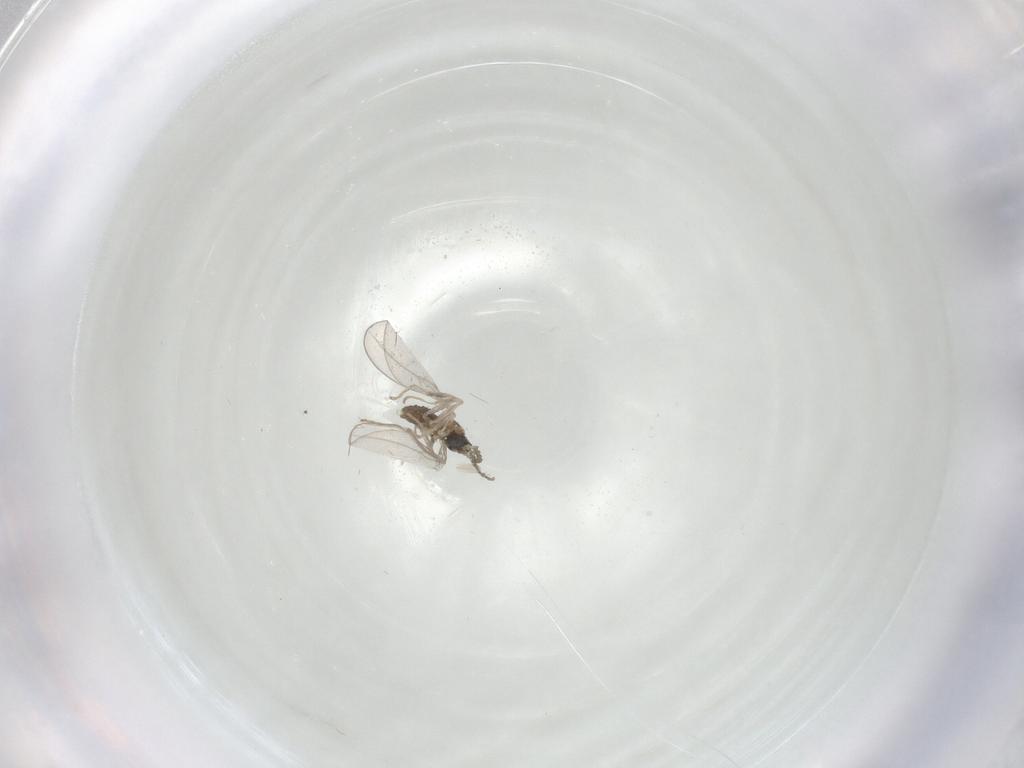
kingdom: Animalia
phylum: Arthropoda
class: Insecta
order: Diptera
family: Cecidomyiidae
